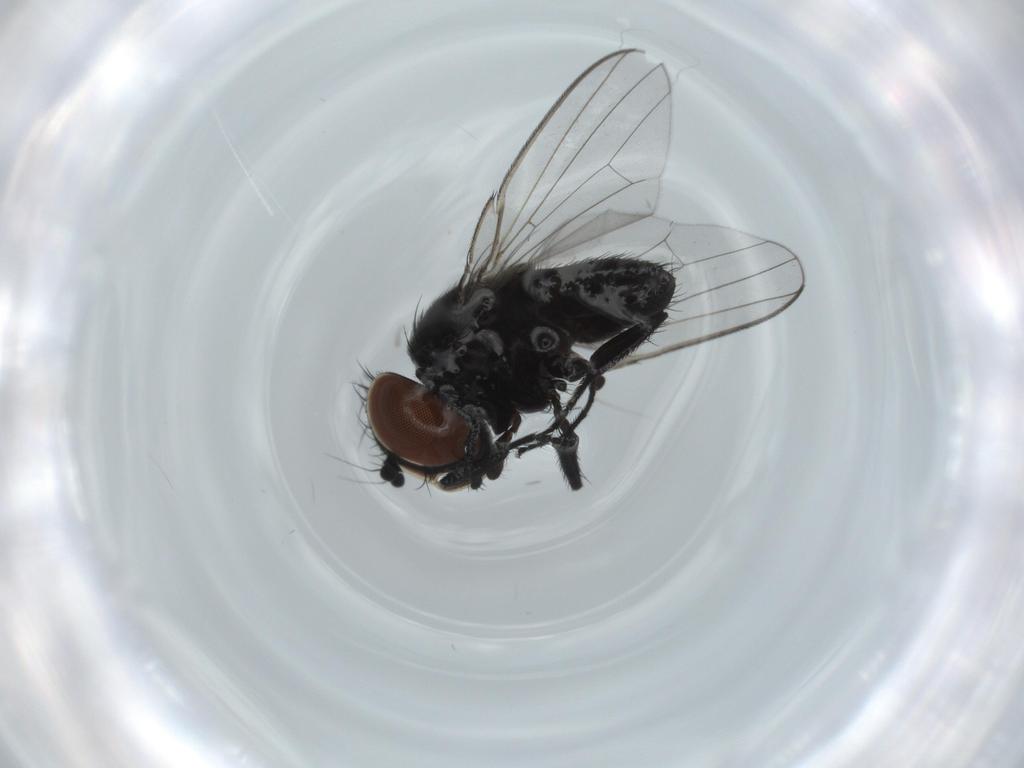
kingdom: Animalia
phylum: Arthropoda
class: Insecta
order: Diptera
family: Milichiidae
